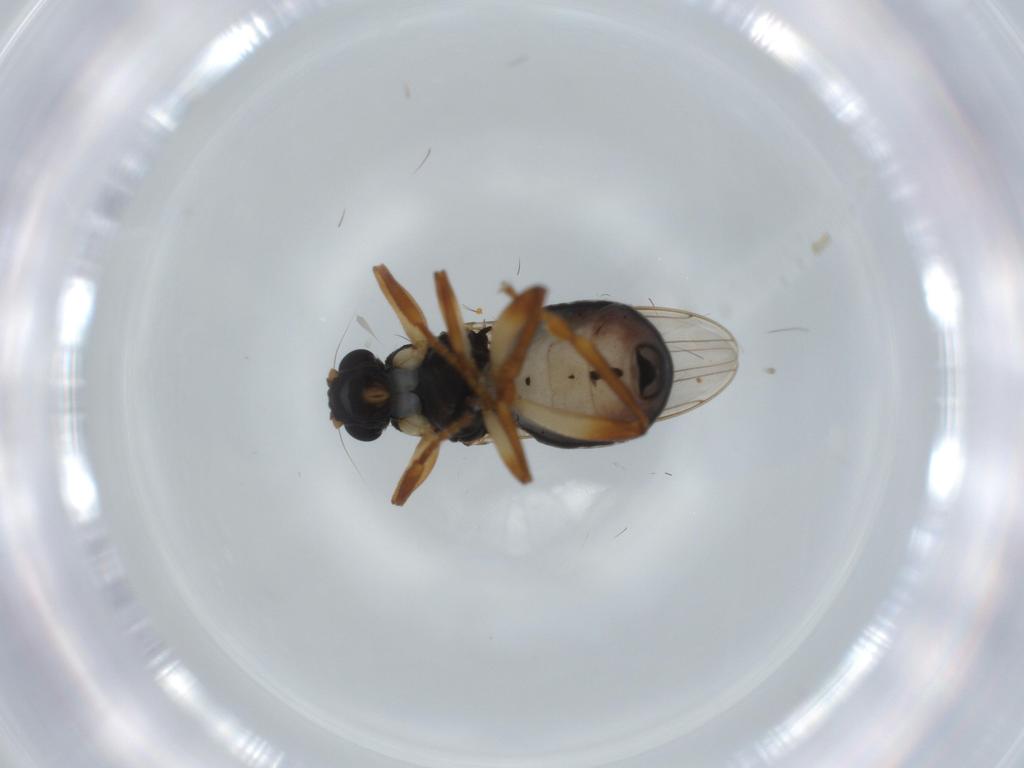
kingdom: Animalia
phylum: Arthropoda
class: Insecta
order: Diptera
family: Sphaeroceridae
